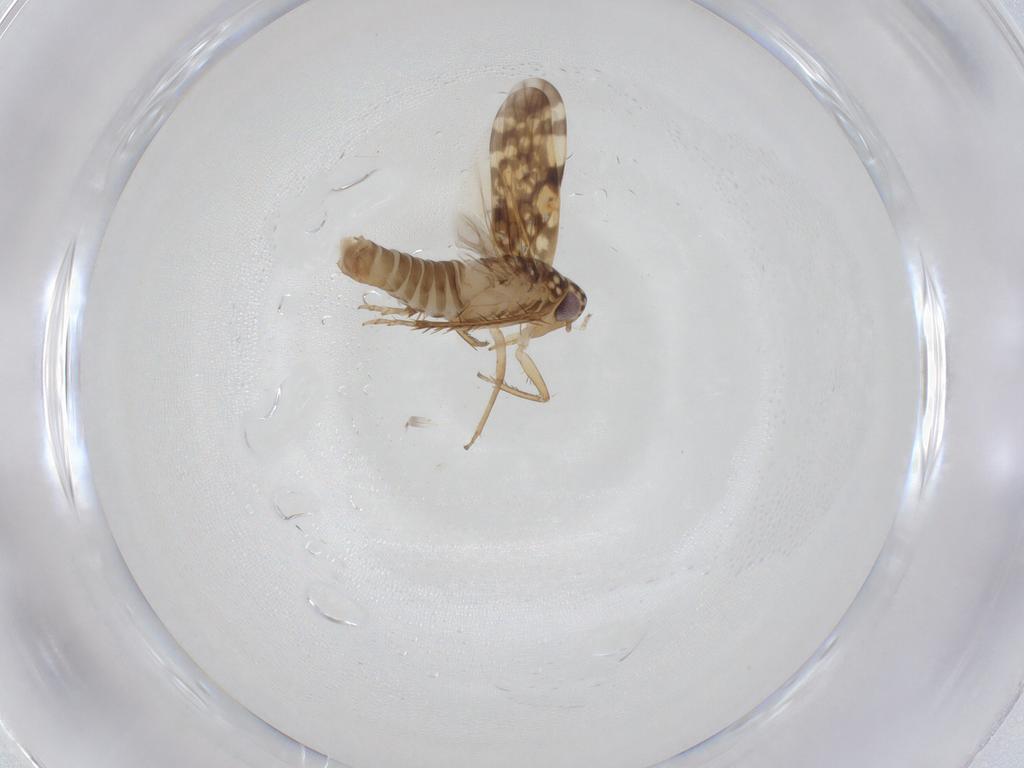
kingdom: Animalia
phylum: Arthropoda
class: Insecta
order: Hemiptera
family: Cicadellidae
